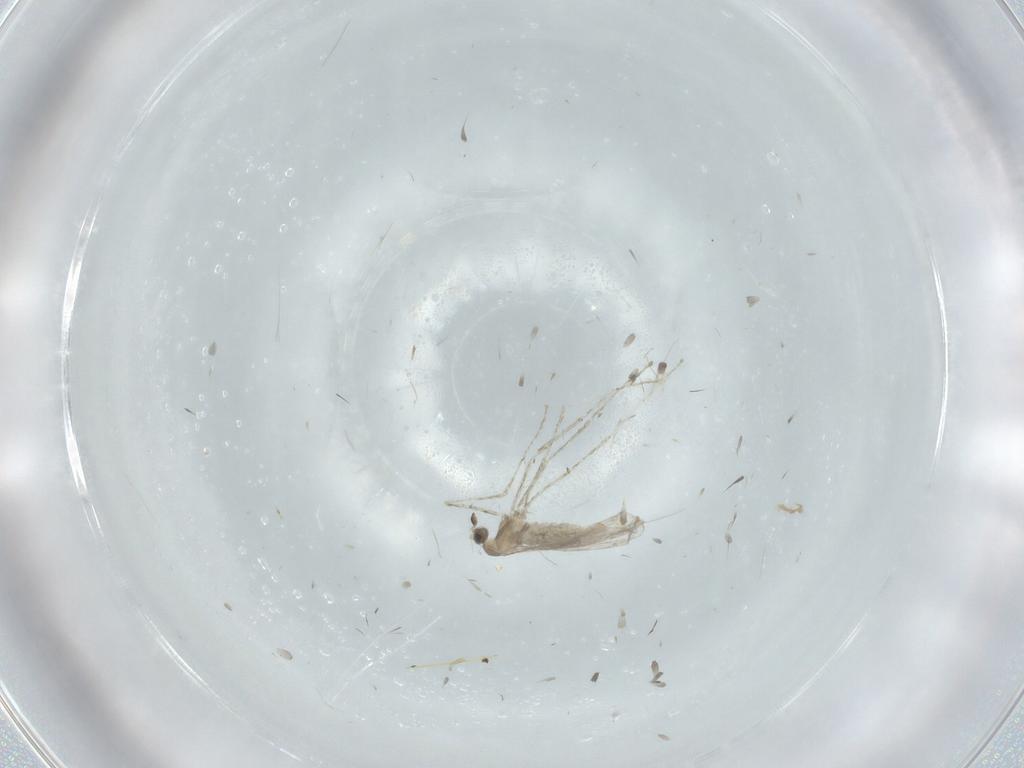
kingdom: Animalia
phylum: Arthropoda
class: Insecta
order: Diptera
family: Cecidomyiidae
